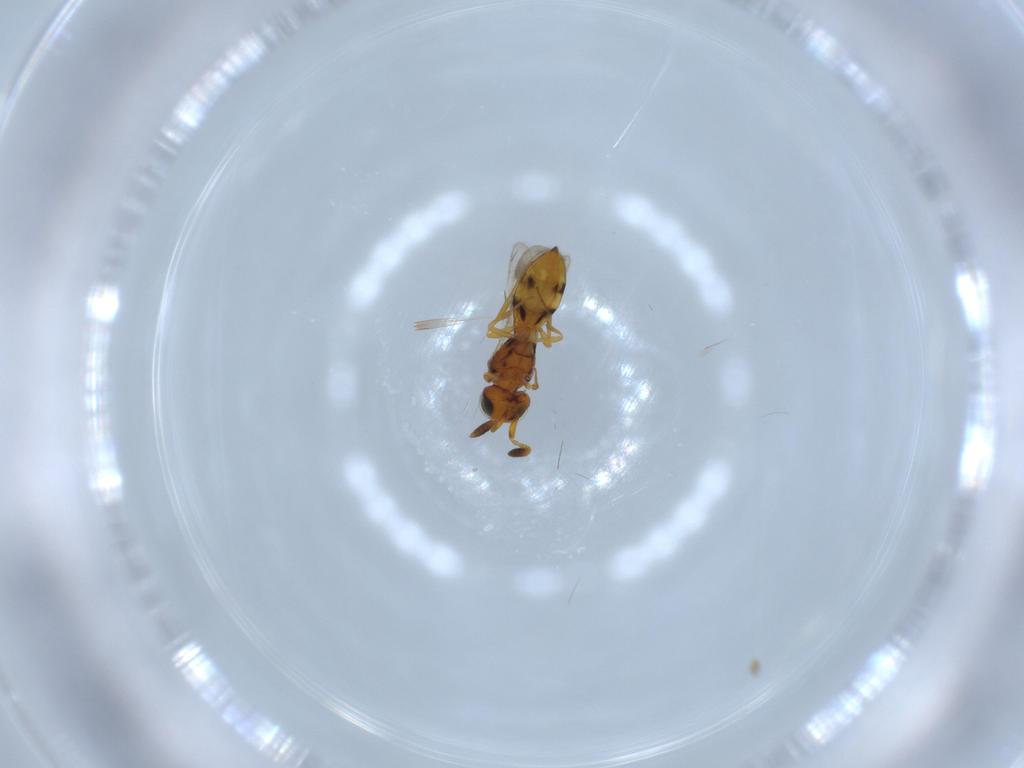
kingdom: Animalia
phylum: Arthropoda
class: Insecta
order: Hymenoptera
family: Scelionidae
